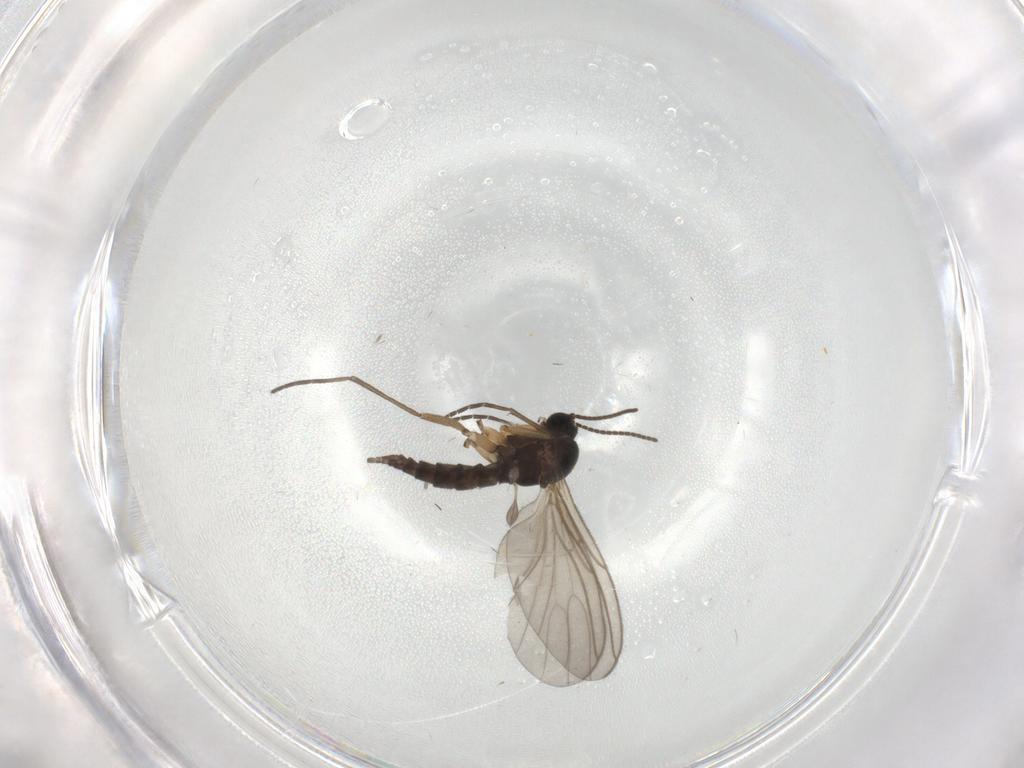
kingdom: Animalia
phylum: Arthropoda
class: Insecta
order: Diptera
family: Sciaridae
